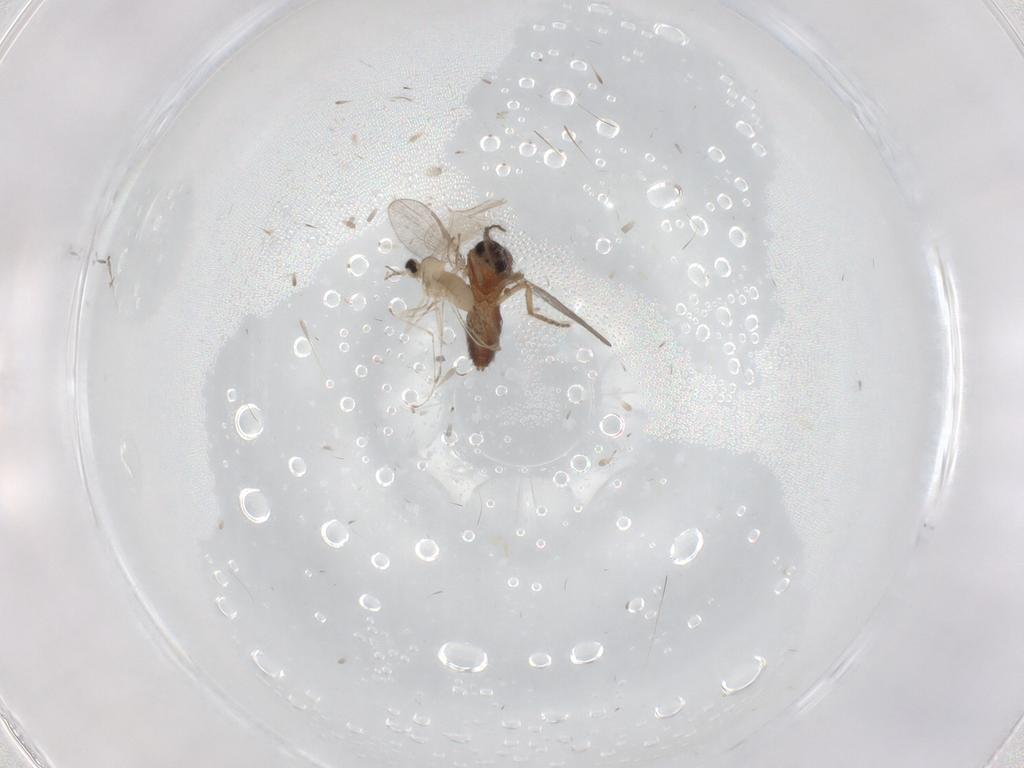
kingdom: Animalia
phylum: Arthropoda
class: Insecta
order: Diptera
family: Cecidomyiidae
